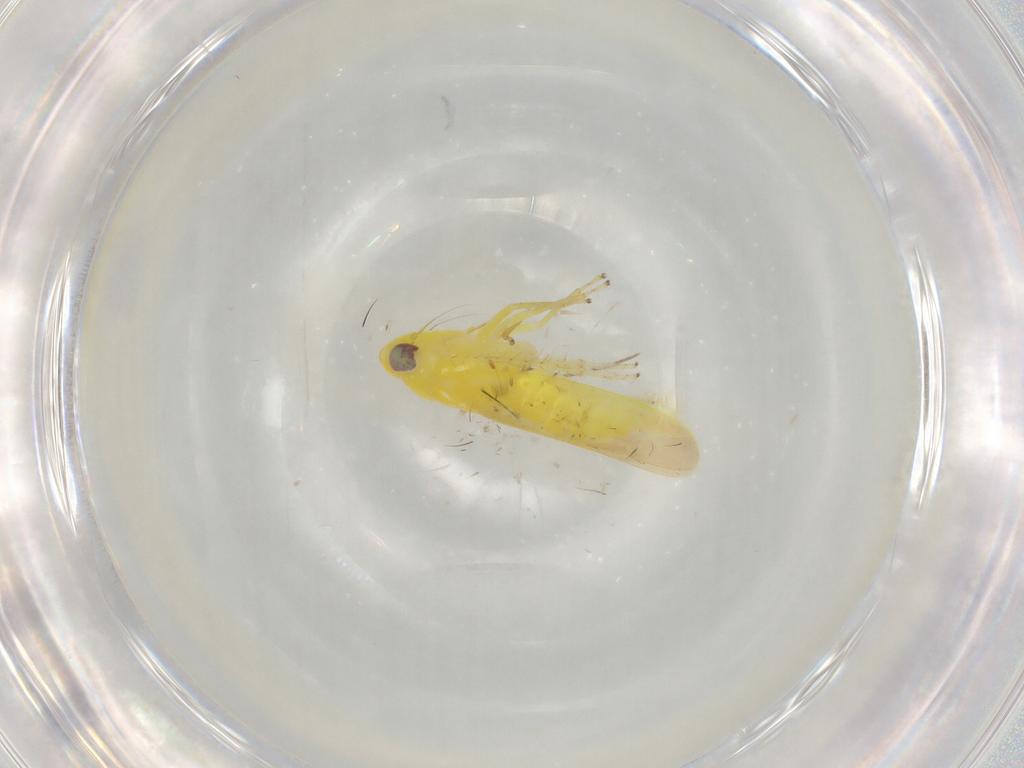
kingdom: Animalia
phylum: Arthropoda
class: Insecta
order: Hemiptera
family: Cicadellidae
